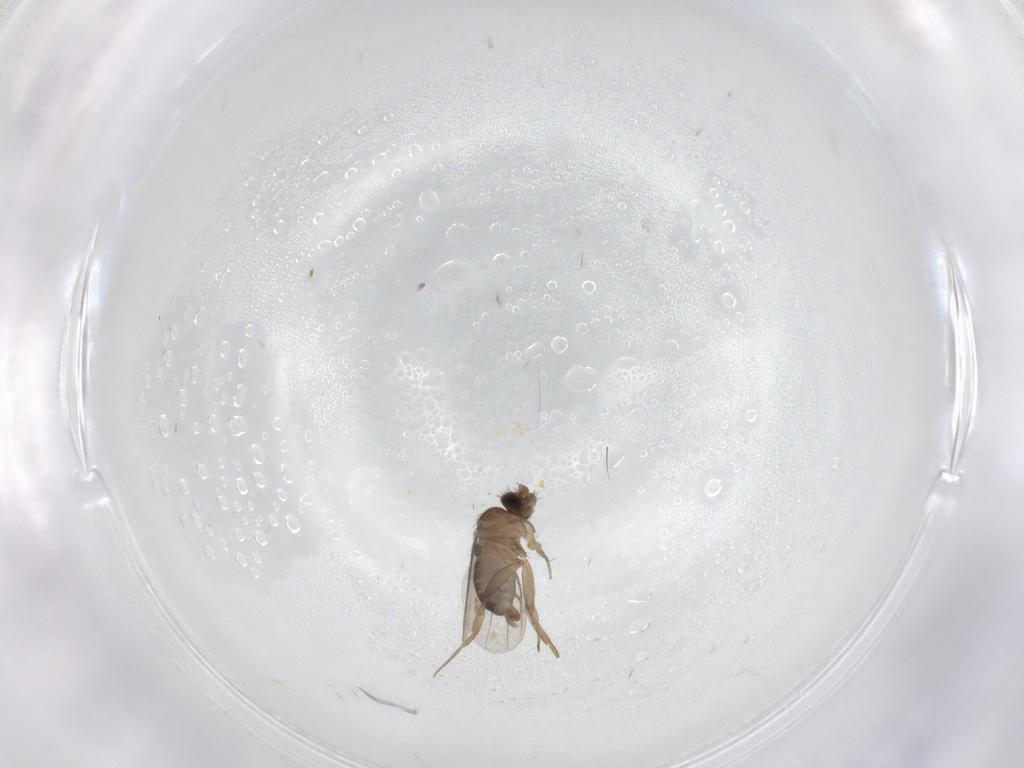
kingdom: Animalia
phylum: Arthropoda
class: Insecta
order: Diptera
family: Phoridae
